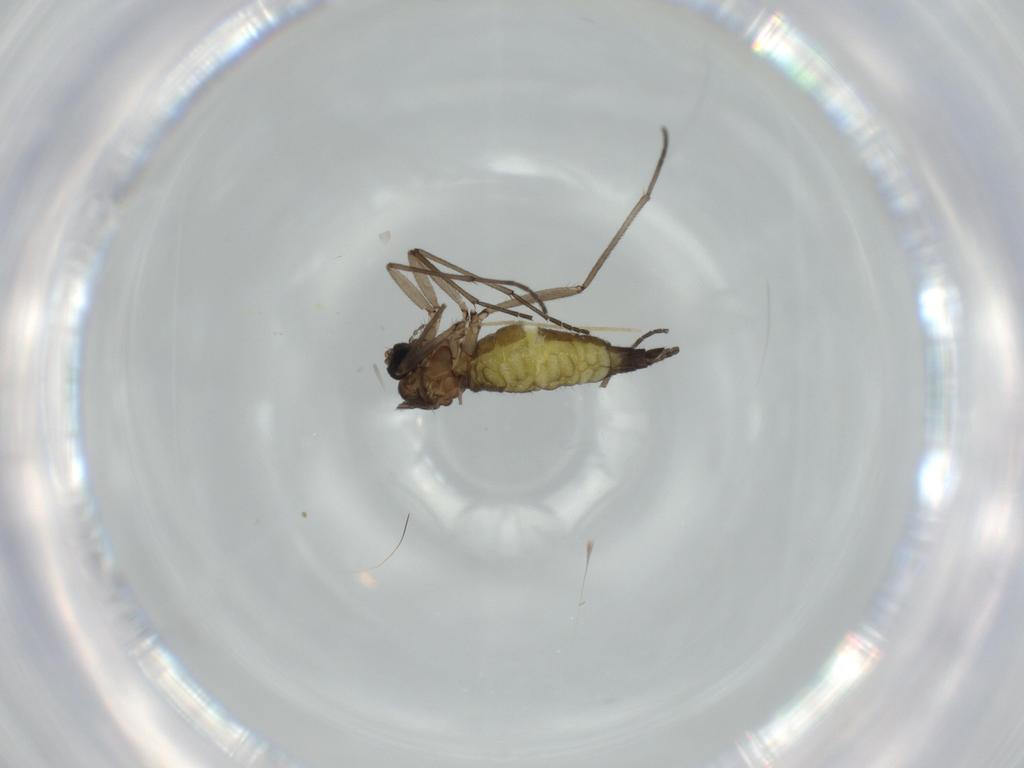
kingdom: Animalia
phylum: Arthropoda
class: Insecta
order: Diptera
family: Sciaridae
